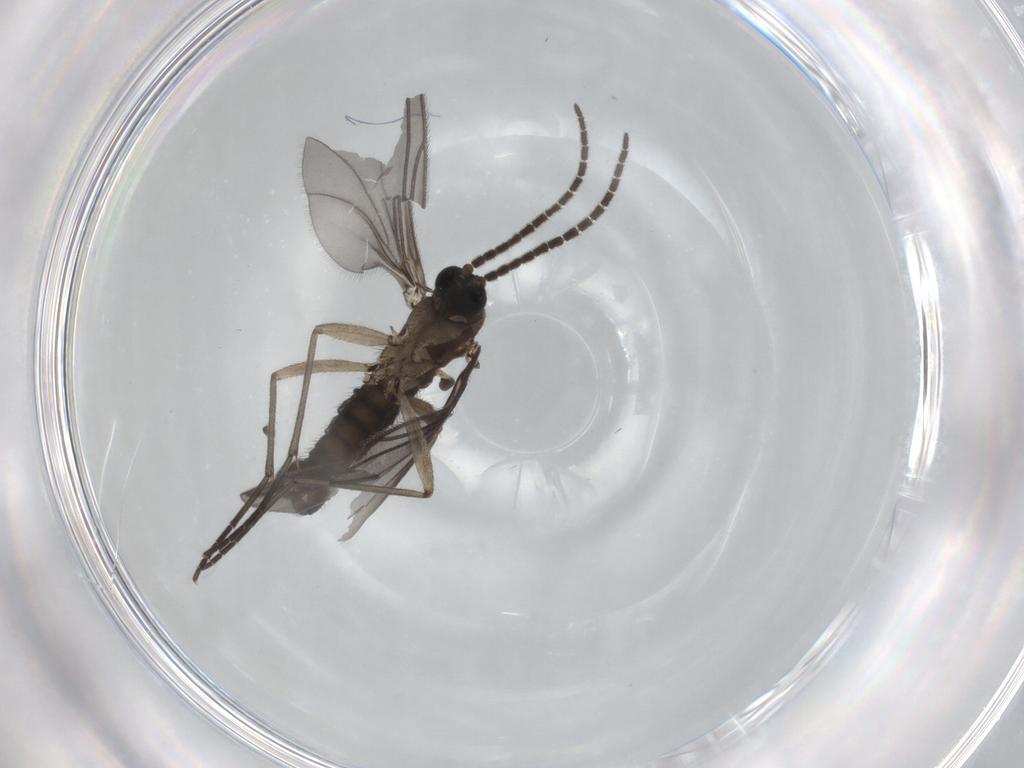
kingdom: Animalia
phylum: Arthropoda
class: Insecta
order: Diptera
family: Sciaridae
